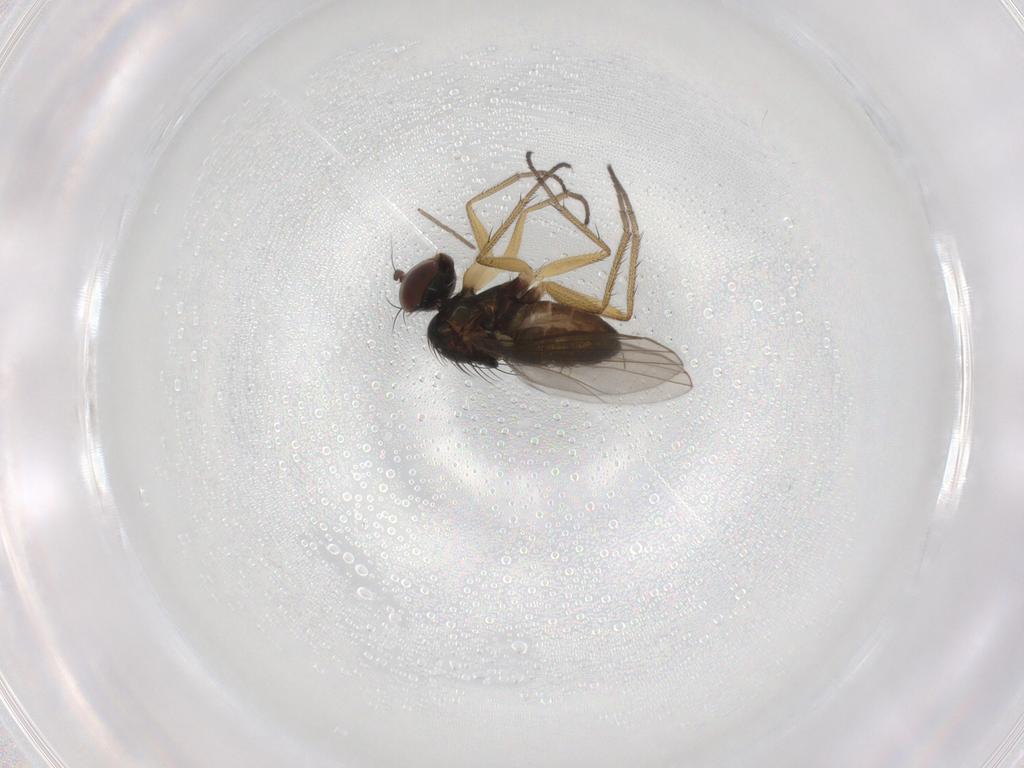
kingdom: Animalia
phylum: Arthropoda
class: Insecta
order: Diptera
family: Dolichopodidae
